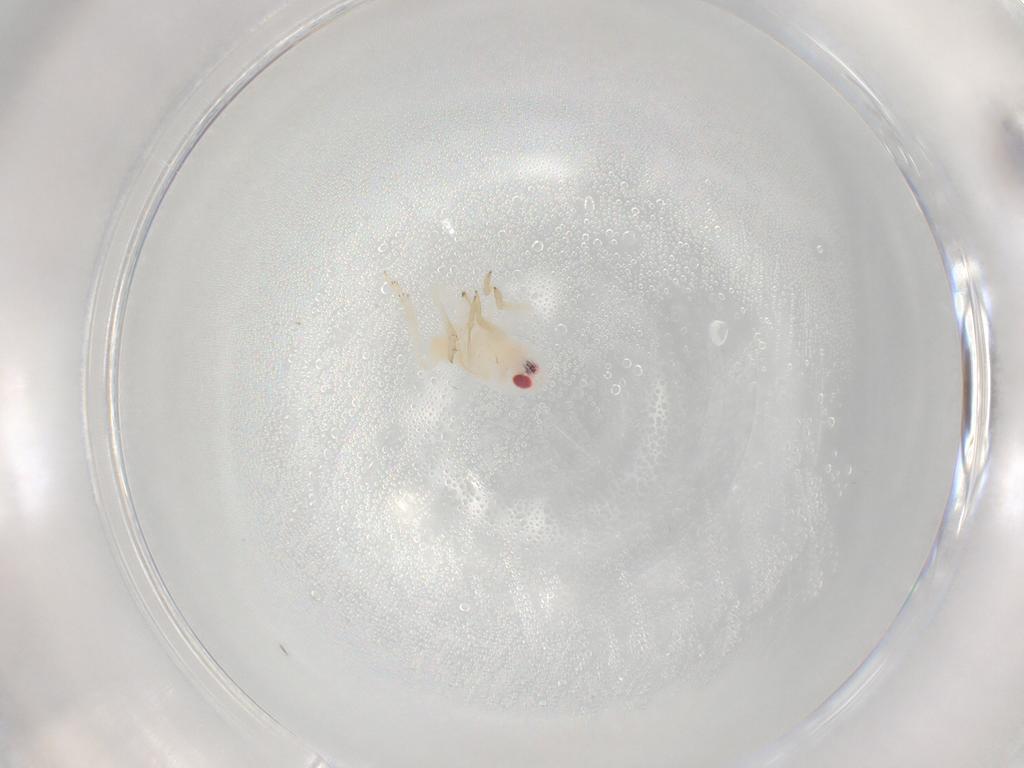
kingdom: Animalia
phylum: Arthropoda
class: Insecta
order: Hemiptera
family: Tropiduchidae
